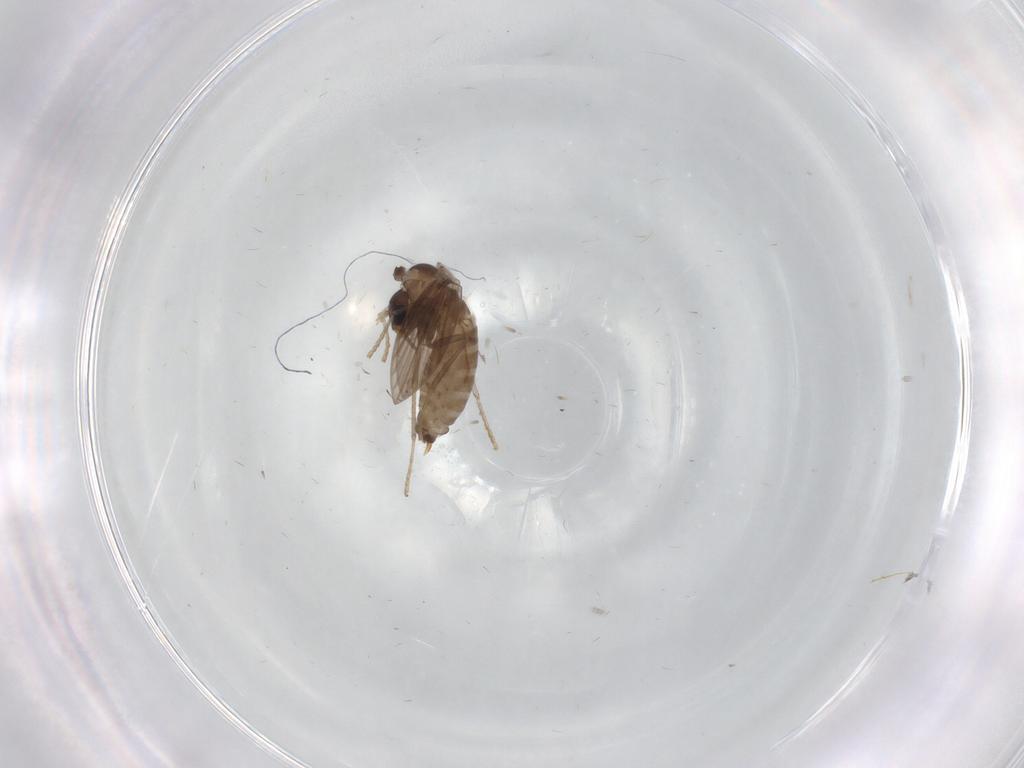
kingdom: Animalia
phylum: Arthropoda
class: Insecta
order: Diptera
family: Psychodidae
